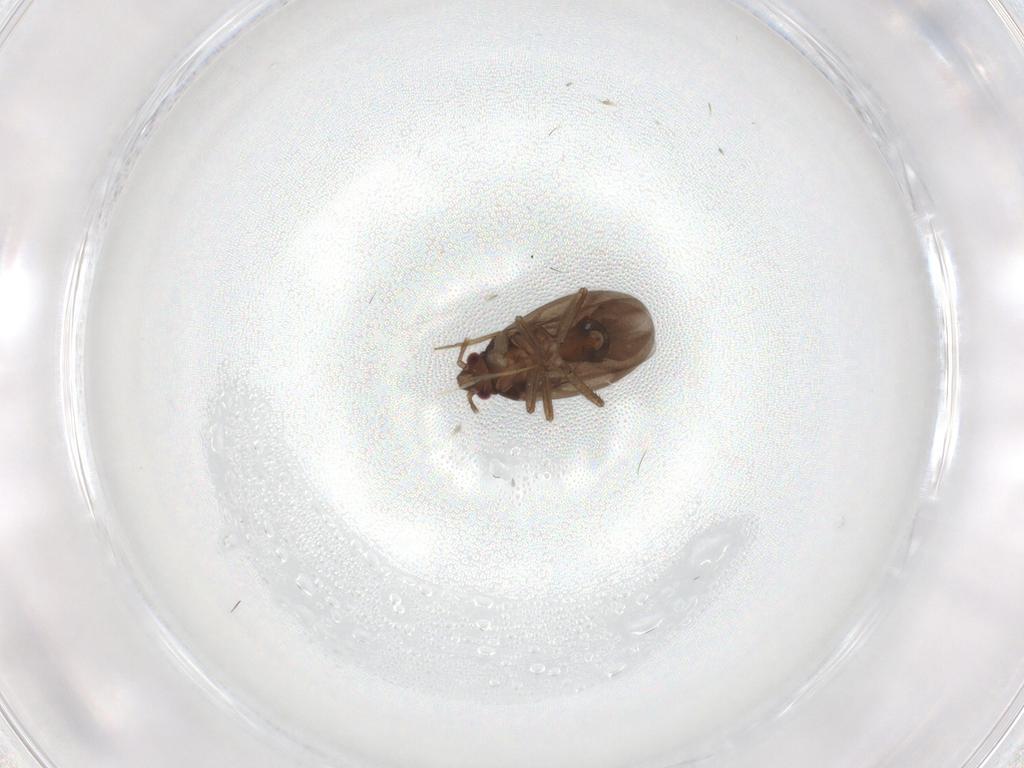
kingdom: Animalia
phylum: Arthropoda
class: Insecta
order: Hemiptera
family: Ceratocombidae
